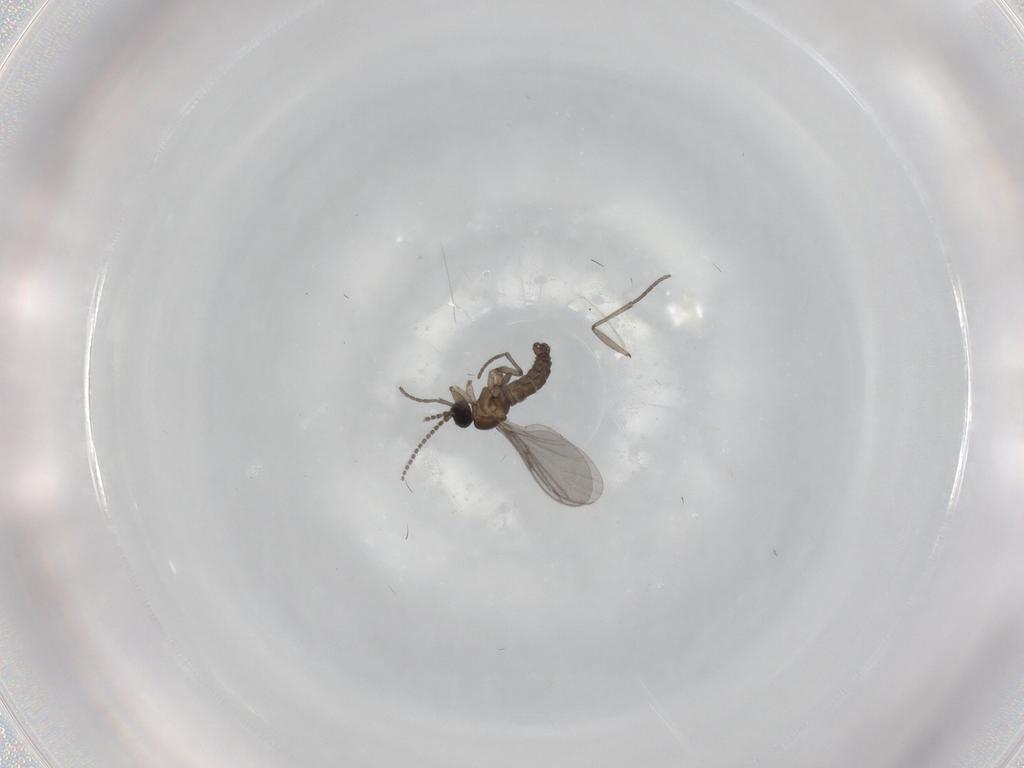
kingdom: Animalia
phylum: Arthropoda
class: Insecta
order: Diptera
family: Sciaridae
